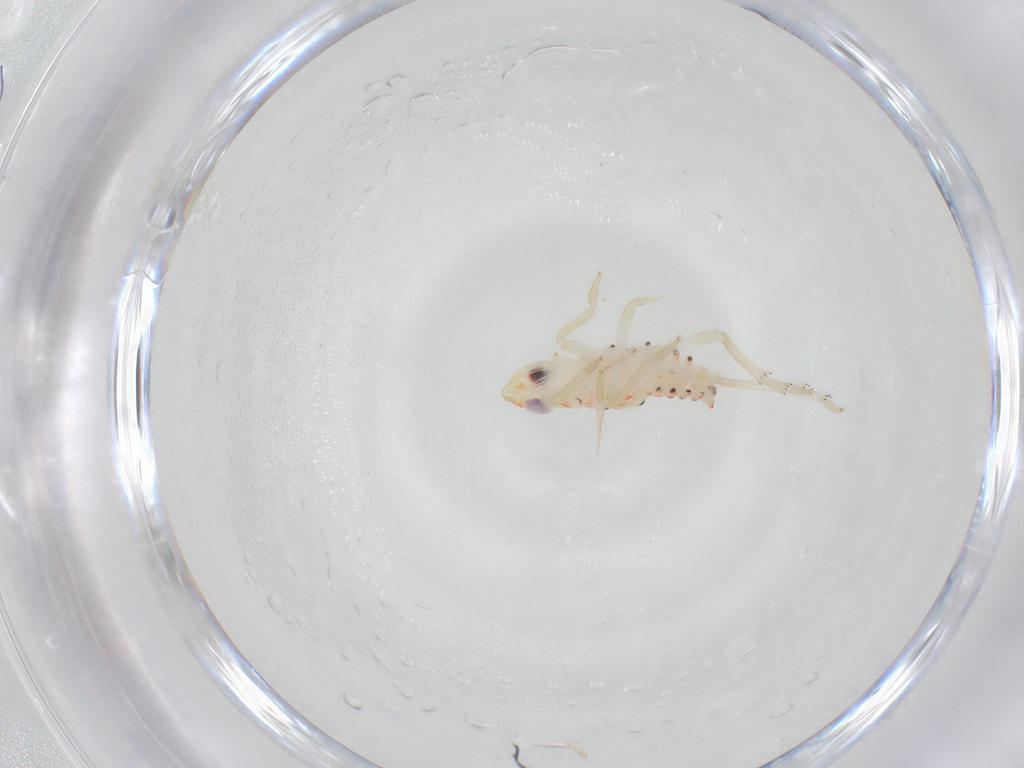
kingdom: Animalia
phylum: Arthropoda
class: Insecta
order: Hemiptera
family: Tropiduchidae
